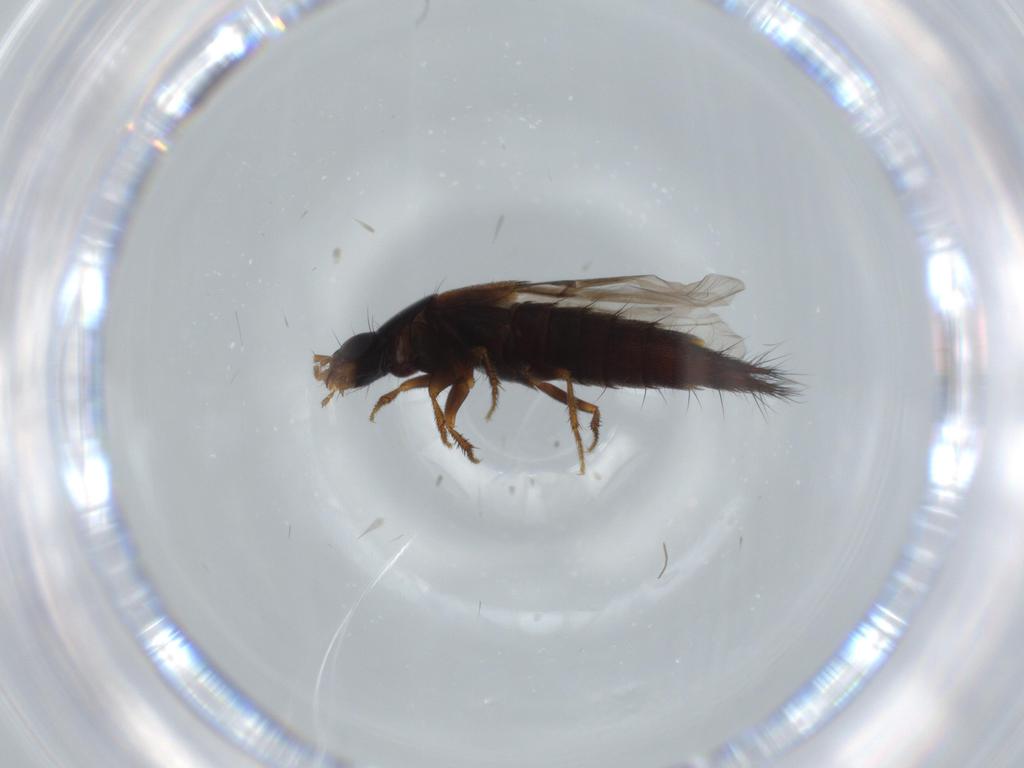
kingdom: Animalia
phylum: Arthropoda
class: Insecta
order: Coleoptera
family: Staphylinidae
